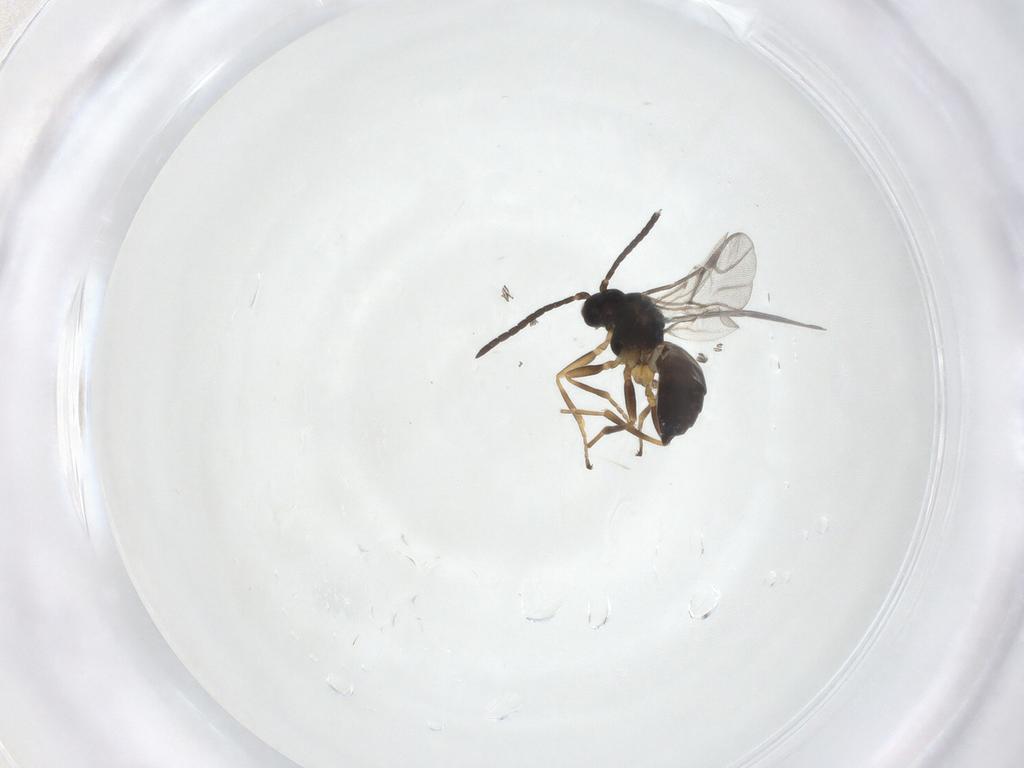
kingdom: Animalia
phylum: Arthropoda
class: Insecta
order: Hymenoptera
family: Braconidae
